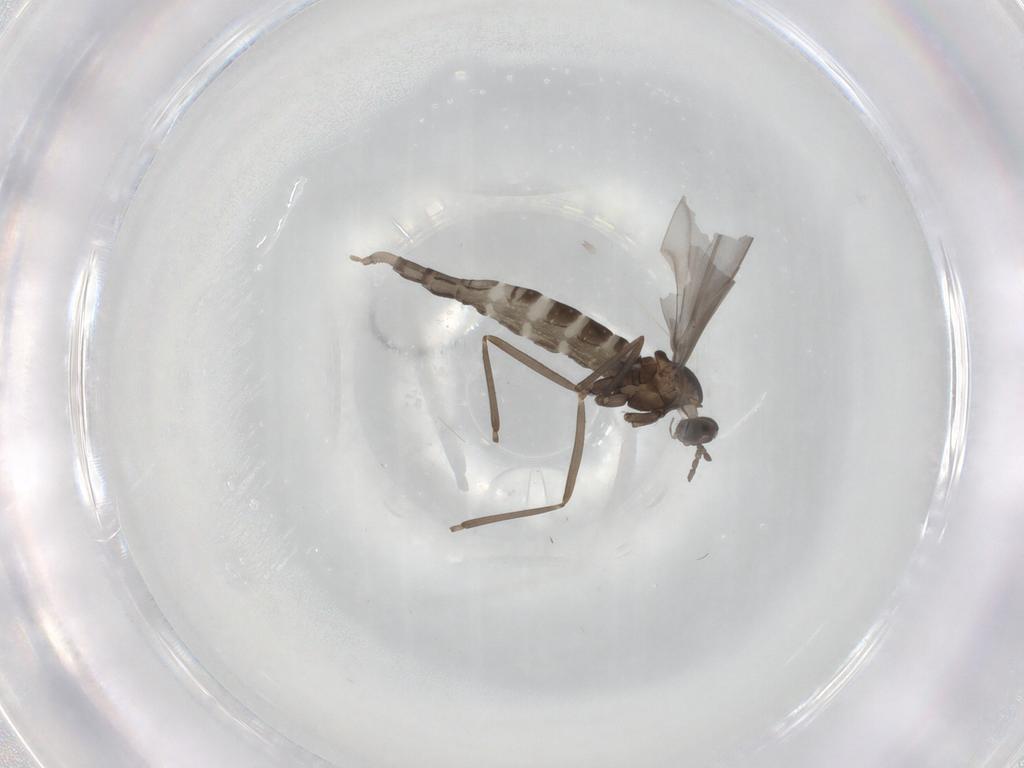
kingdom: Animalia
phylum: Arthropoda
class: Insecta
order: Diptera
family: Cecidomyiidae
